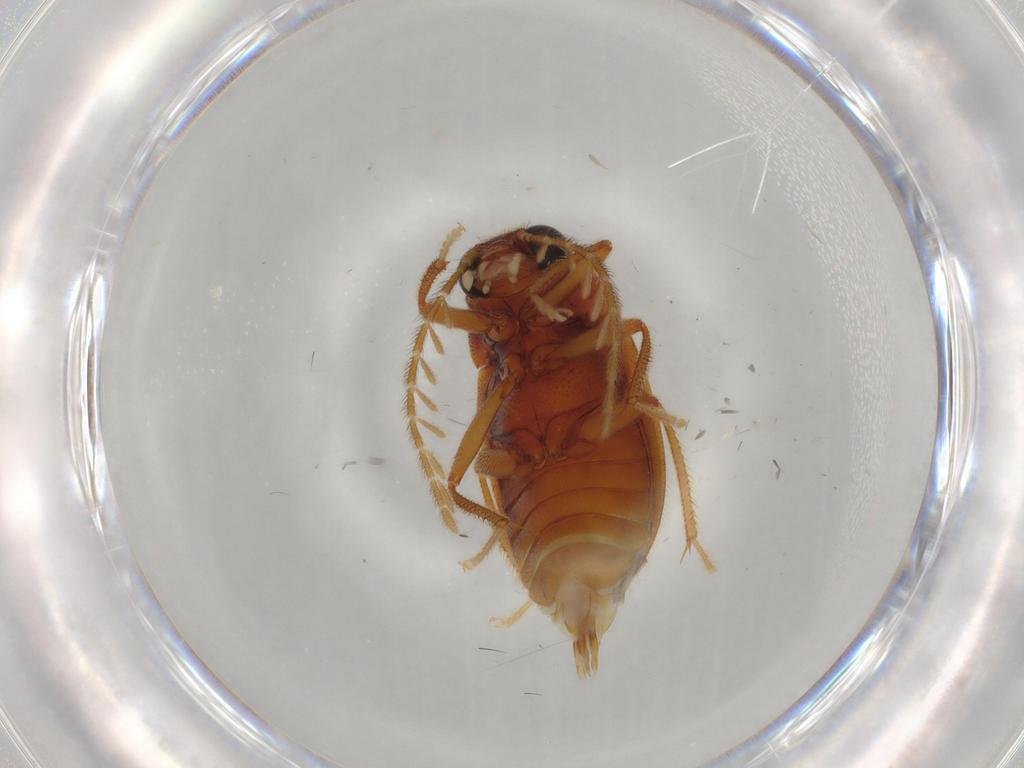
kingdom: Animalia
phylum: Arthropoda
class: Insecta
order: Coleoptera
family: Ptilodactylidae
